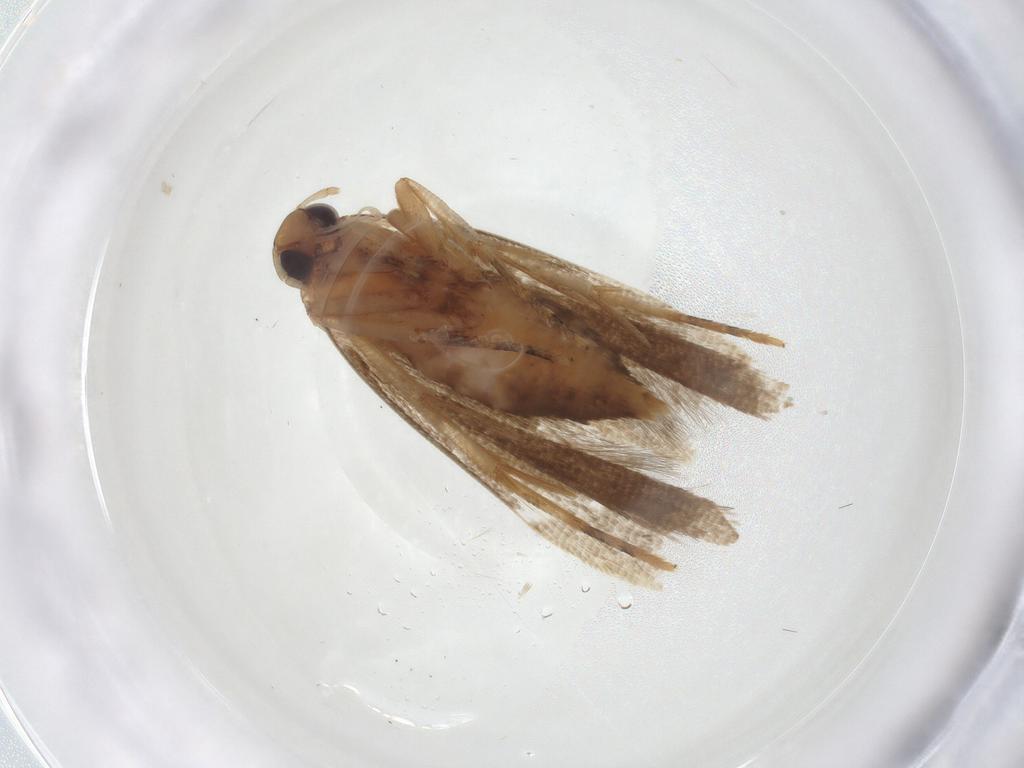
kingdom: Animalia
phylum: Arthropoda
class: Insecta
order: Lepidoptera
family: Gelechiidae
